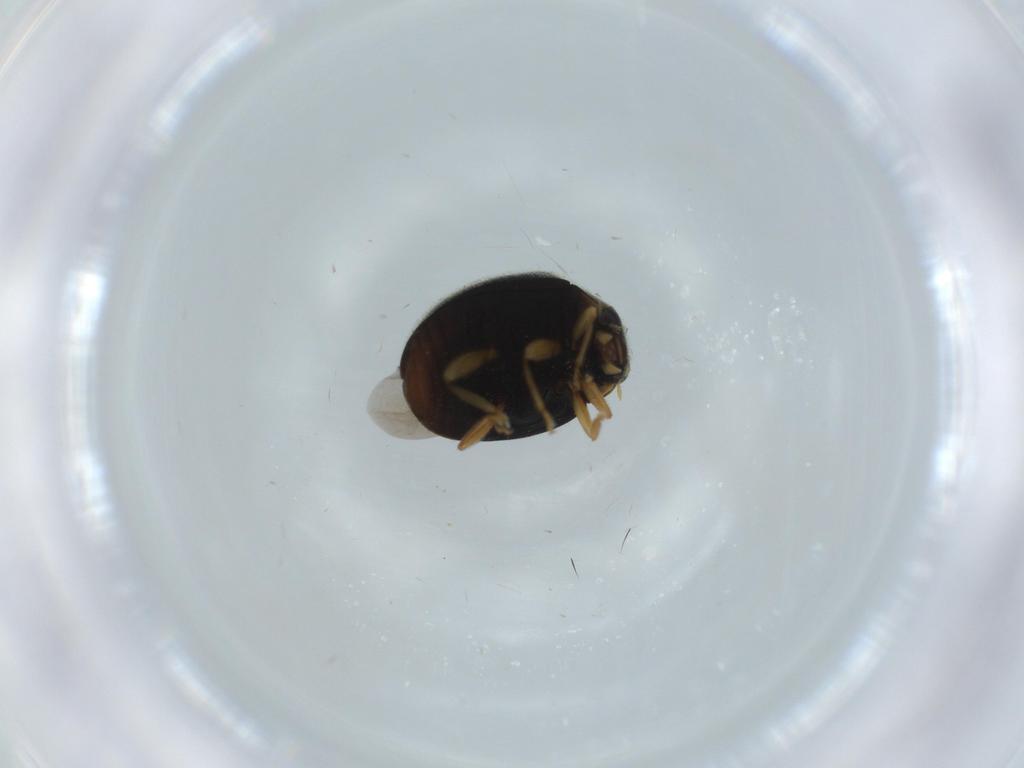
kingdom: Animalia
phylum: Arthropoda
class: Insecta
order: Coleoptera
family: Coccinellidae
